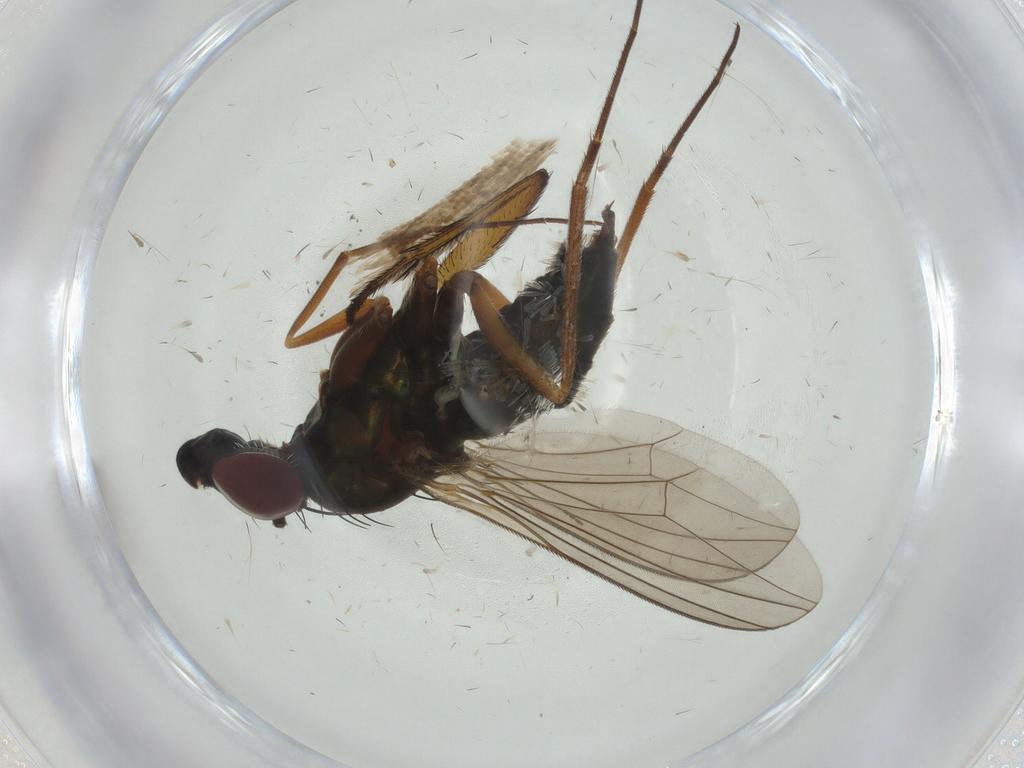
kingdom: Animalia
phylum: Arthropoda
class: Insecta
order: Diptera
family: Dolichopodidae
